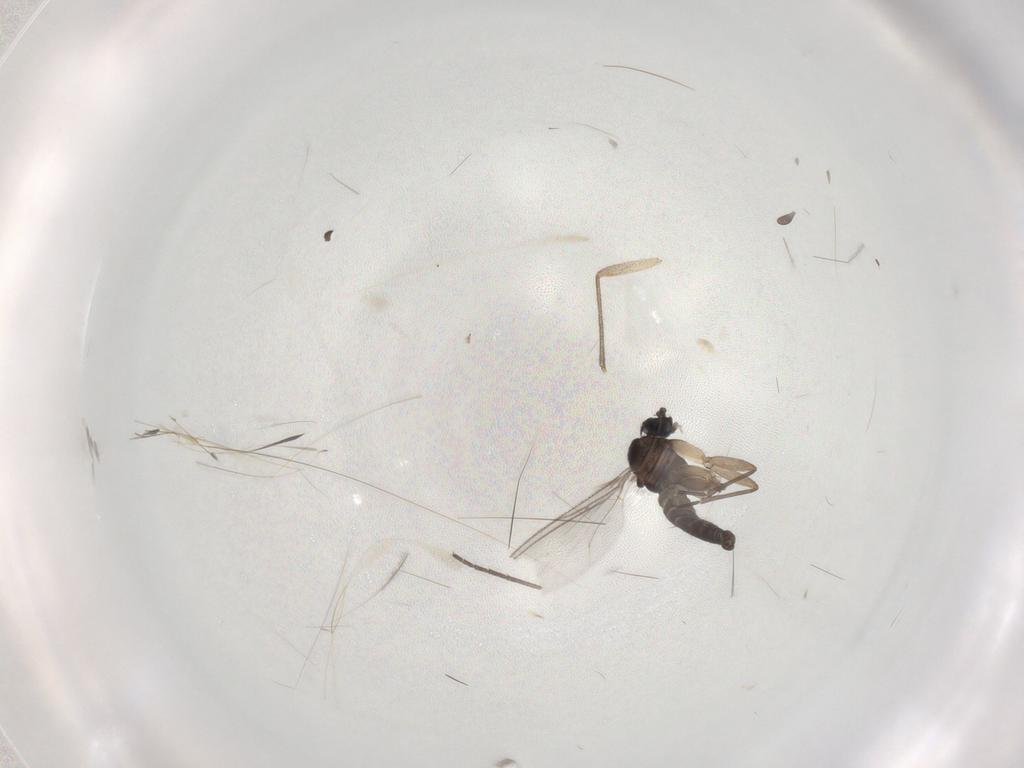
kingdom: Animalia
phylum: Arthropoda
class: Insecta
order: Diptera
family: Sciaridae
